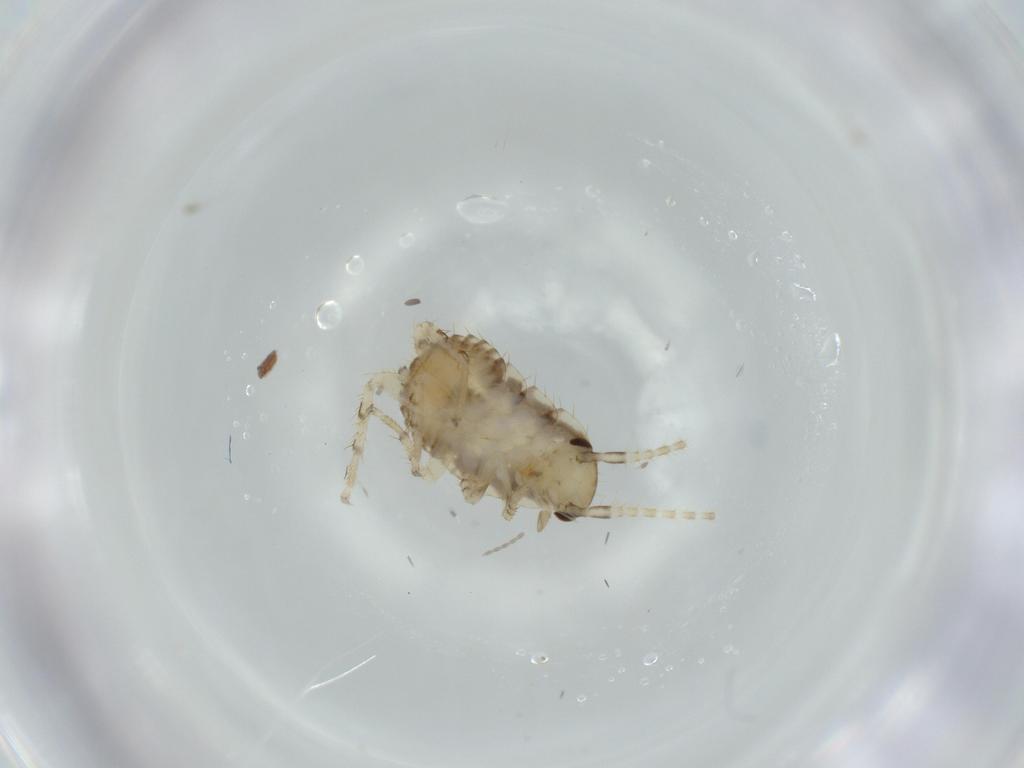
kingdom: Animalia
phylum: Arthropoda
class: Insecta
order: Blattodea
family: Ectobiidae
